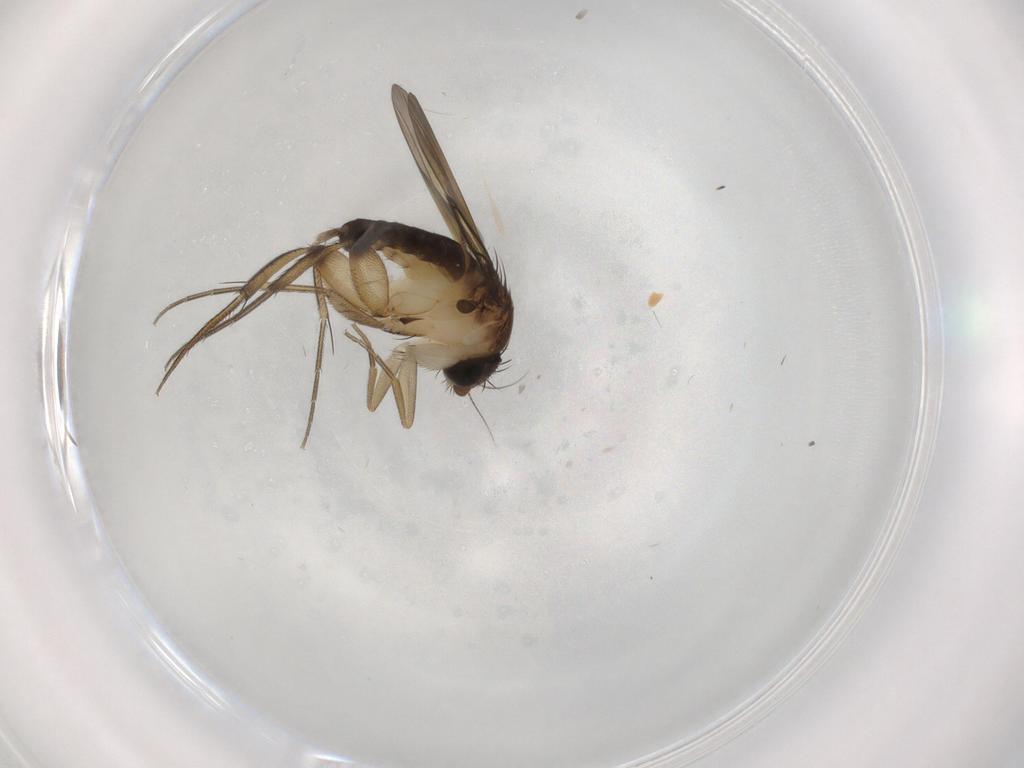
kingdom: Animalia
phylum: Arthropoda
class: Insecta
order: Diptera
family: Phoridae
